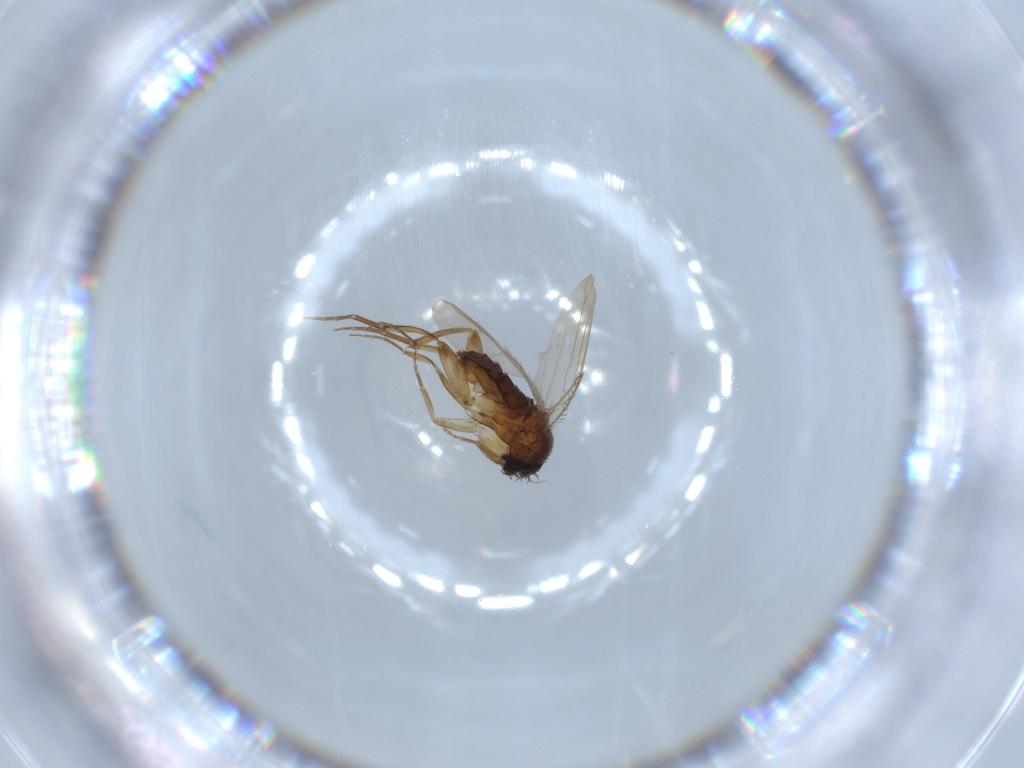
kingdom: Animalia
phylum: Arthropoda
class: Insecta
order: Diptera
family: Phoridae
